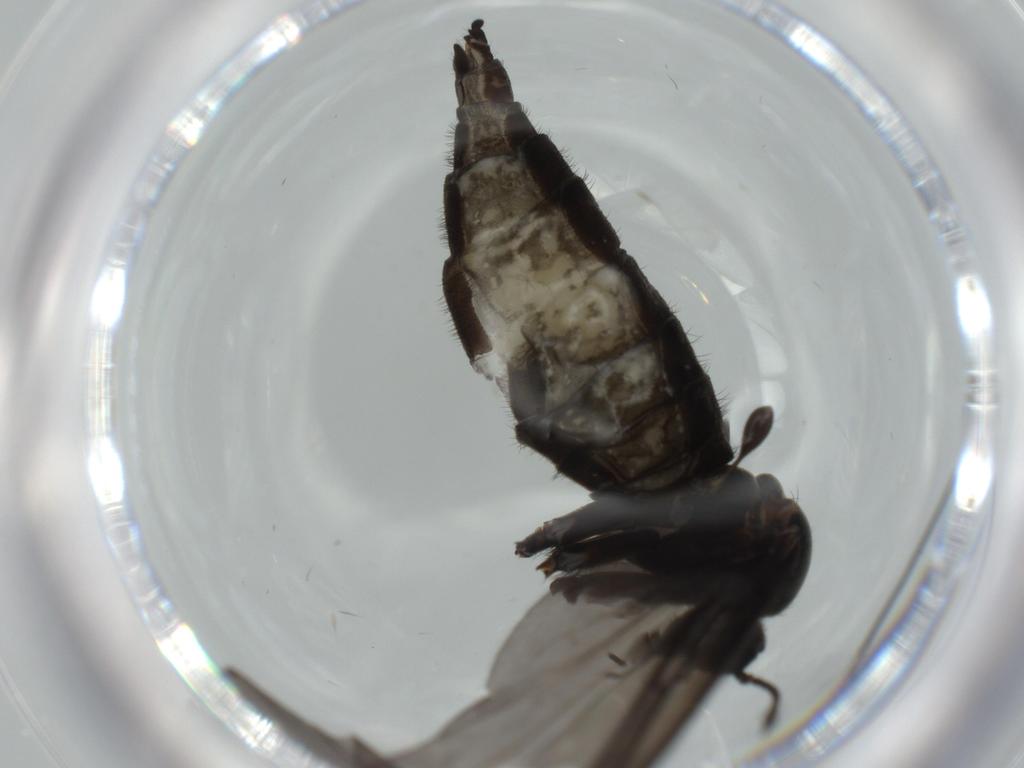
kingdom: Animalia
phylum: Arthropoda
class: Insecta
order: Diptera
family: Sciaridae
